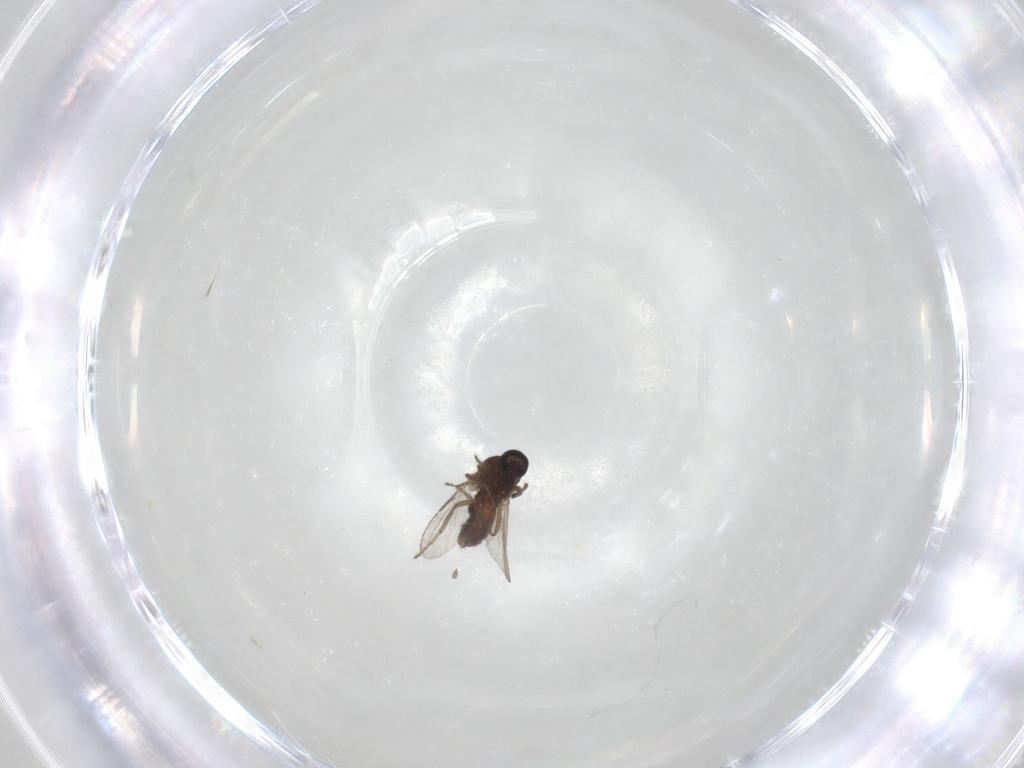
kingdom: Animalia
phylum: Arthropoda
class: Insecta
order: Diptera
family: Ceratopogonidae
